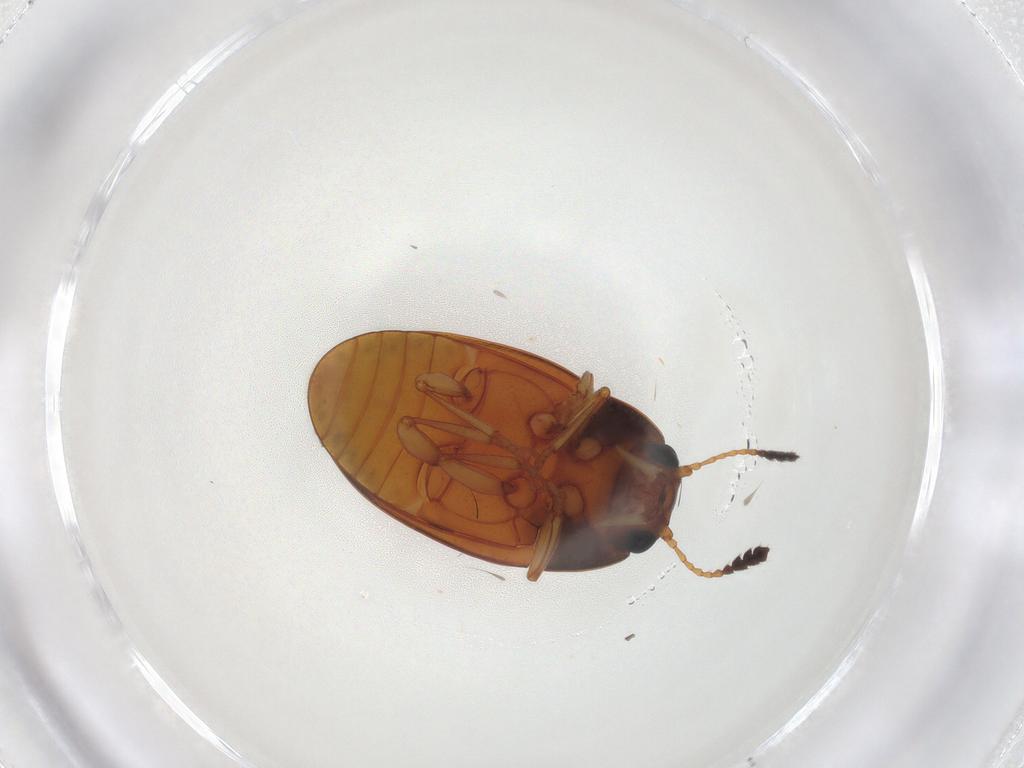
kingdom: Animalia
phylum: Arthropoda
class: Insecta
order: Coleoptera
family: Erotylidae
